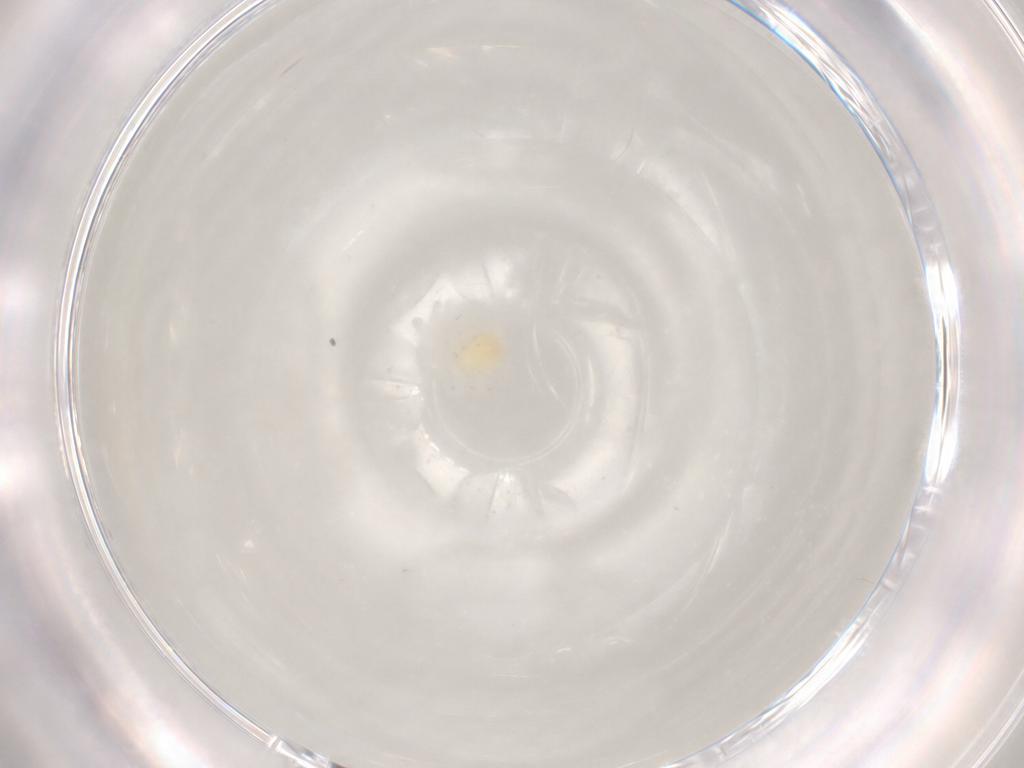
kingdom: Animalia
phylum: Arthropoda
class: Arachnida
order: Trombidiformes
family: Anystidae
